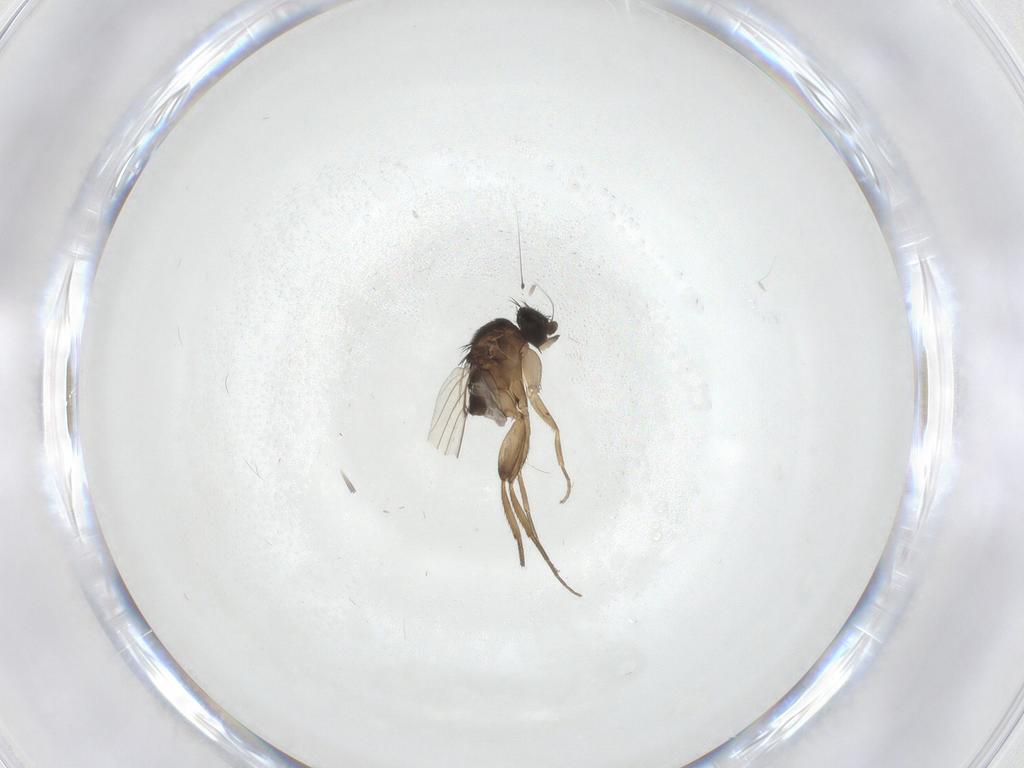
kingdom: Animalia
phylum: Arthropoda
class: Insecta
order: Diptera
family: Phoridae
